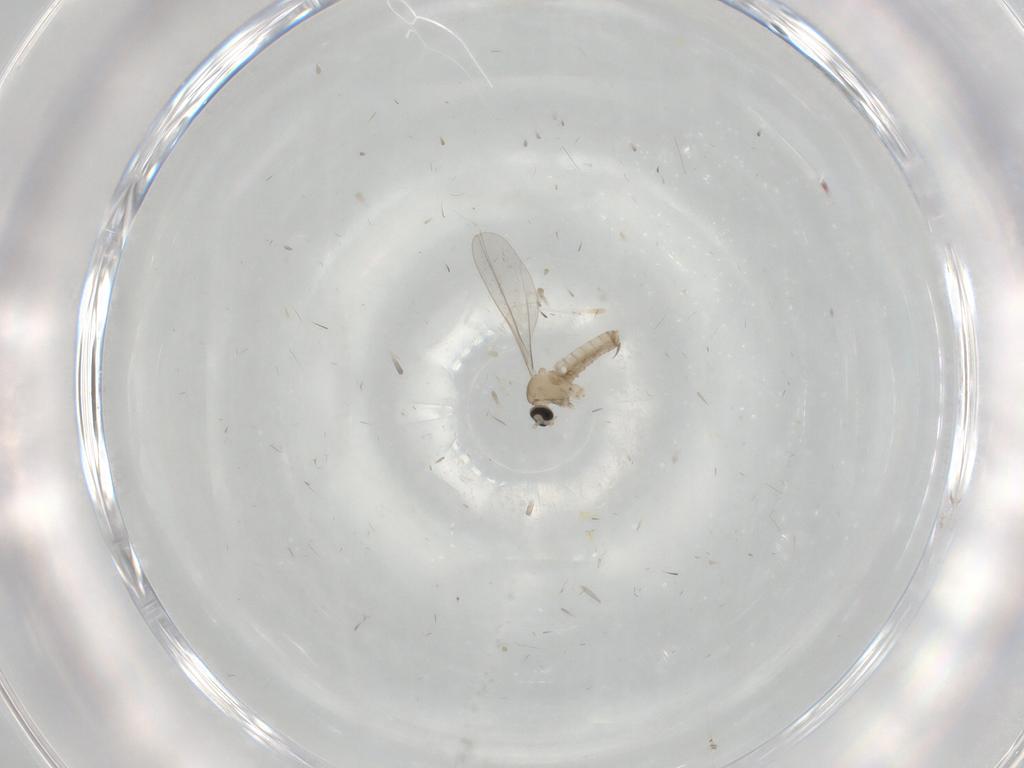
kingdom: Animalia
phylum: Arthropoda
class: Insecta
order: Diptera
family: Cecidomyiidae
